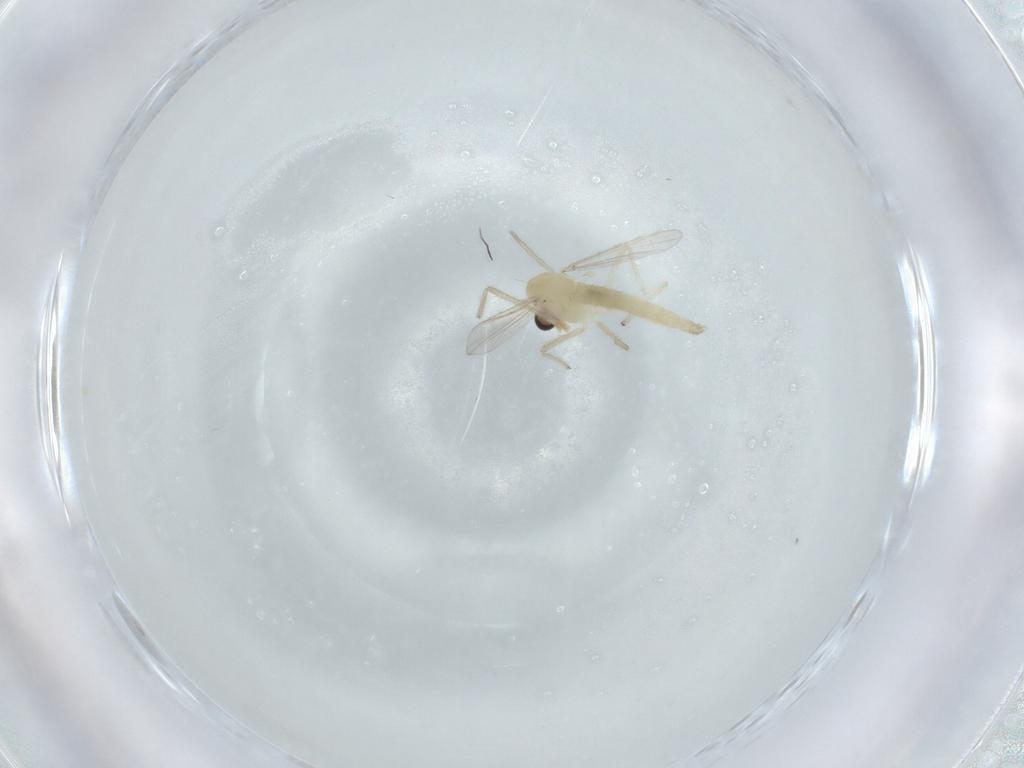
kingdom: Animalia
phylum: Arthropoda
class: Insecta
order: Diptera
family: Chironomidae
